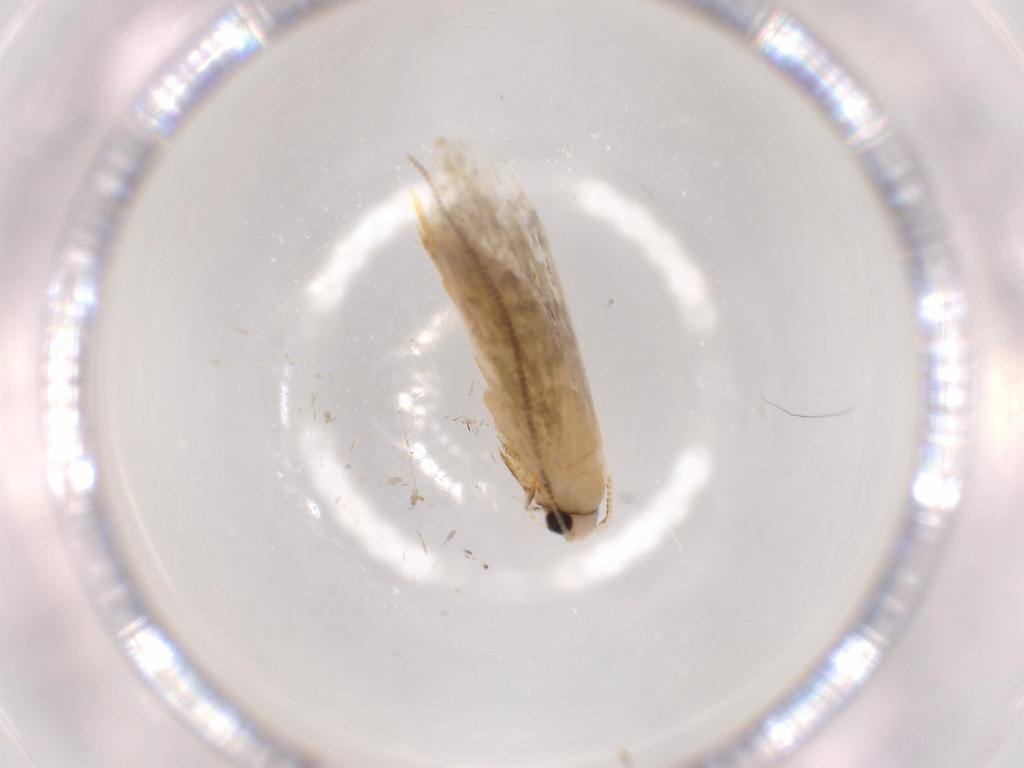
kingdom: Animalia
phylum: Arthropoda
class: Insecta
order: Lepidoptera
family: Tineidae
